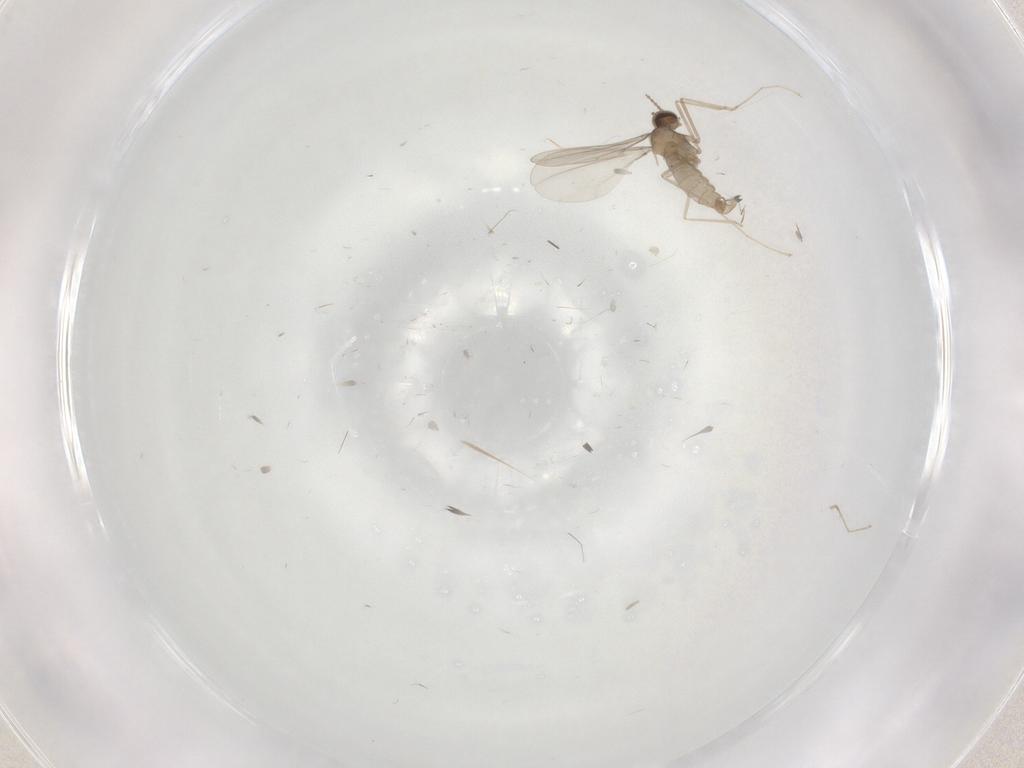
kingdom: Animalia
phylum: Arthropoda
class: Insecta
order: Diptera
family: Cecidomyiidae
